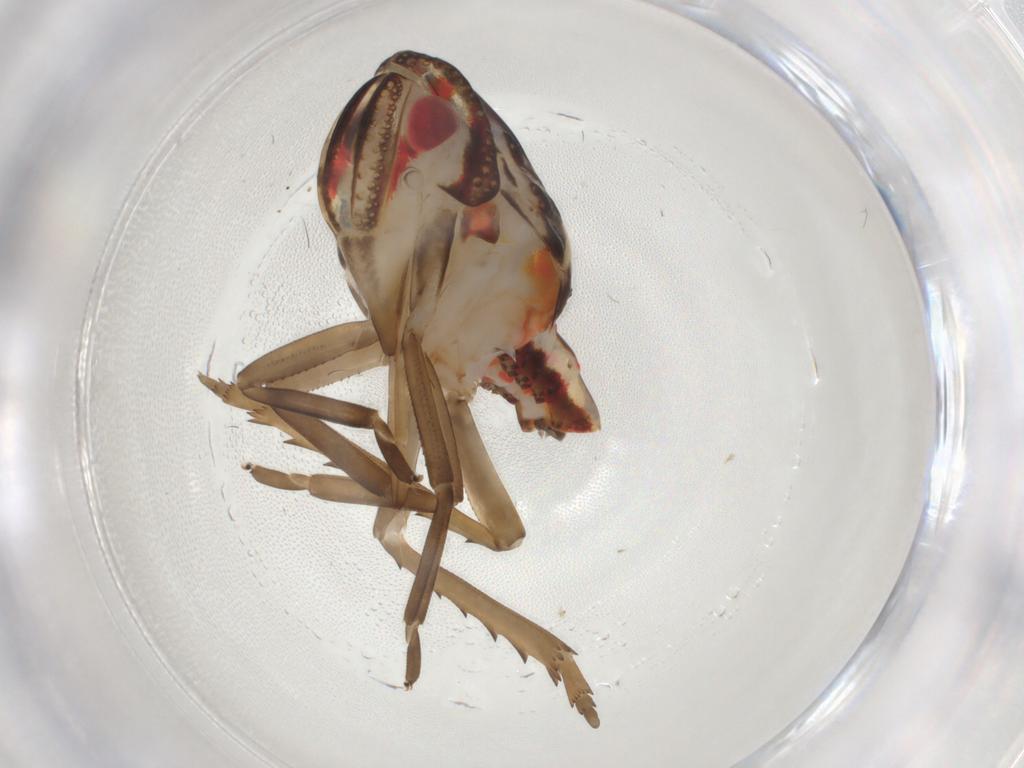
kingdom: Animalia
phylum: Arthropoda
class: Insecta
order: Hemiptera
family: Nogodinidae
